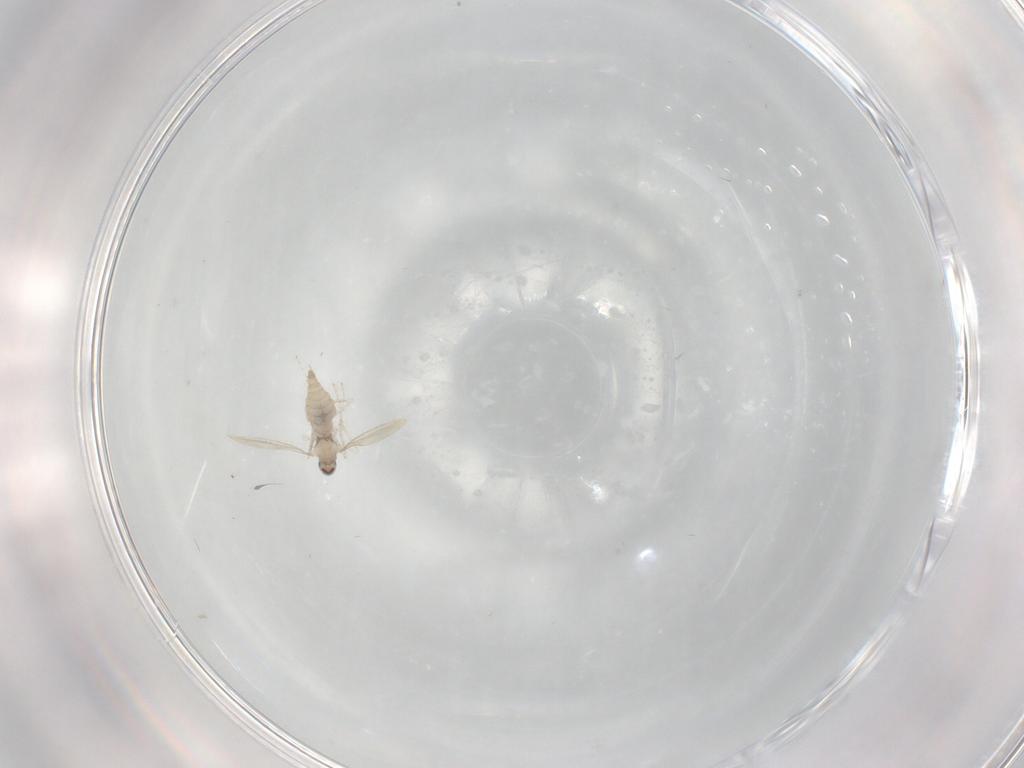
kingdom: Animalia
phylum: Arthropoda
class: Insecta
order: Diptera
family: Cecidomyiidae
